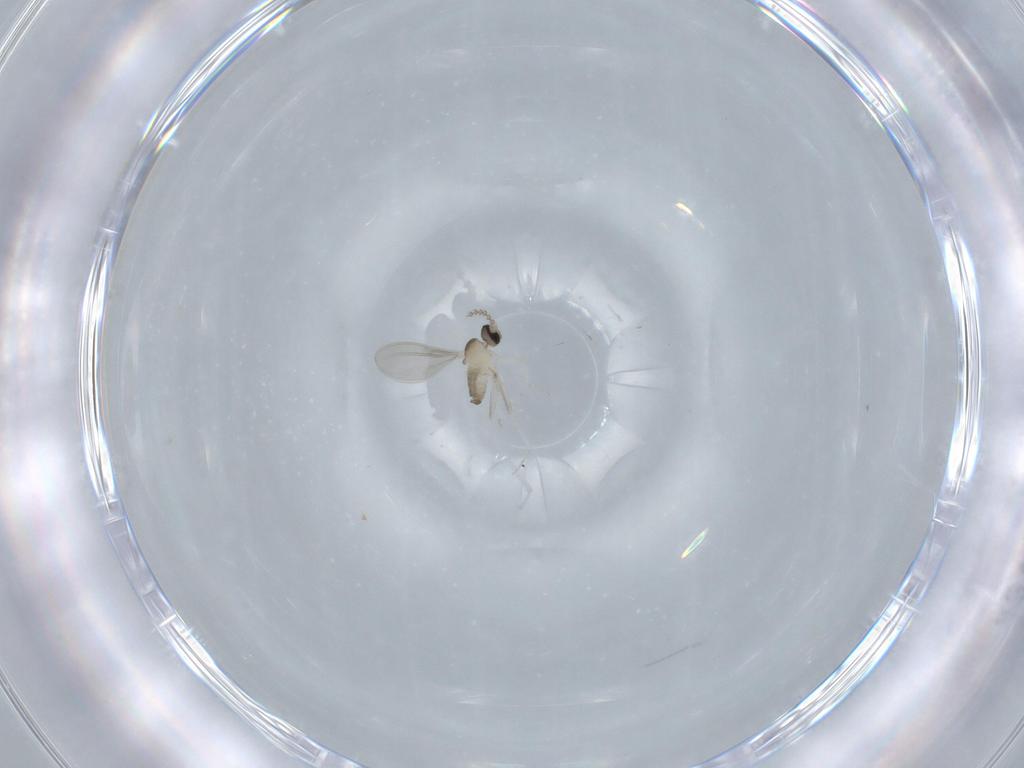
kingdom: Animalia
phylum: Arthropoda
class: Insecta
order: Diptera
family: Cecidomyiidae
